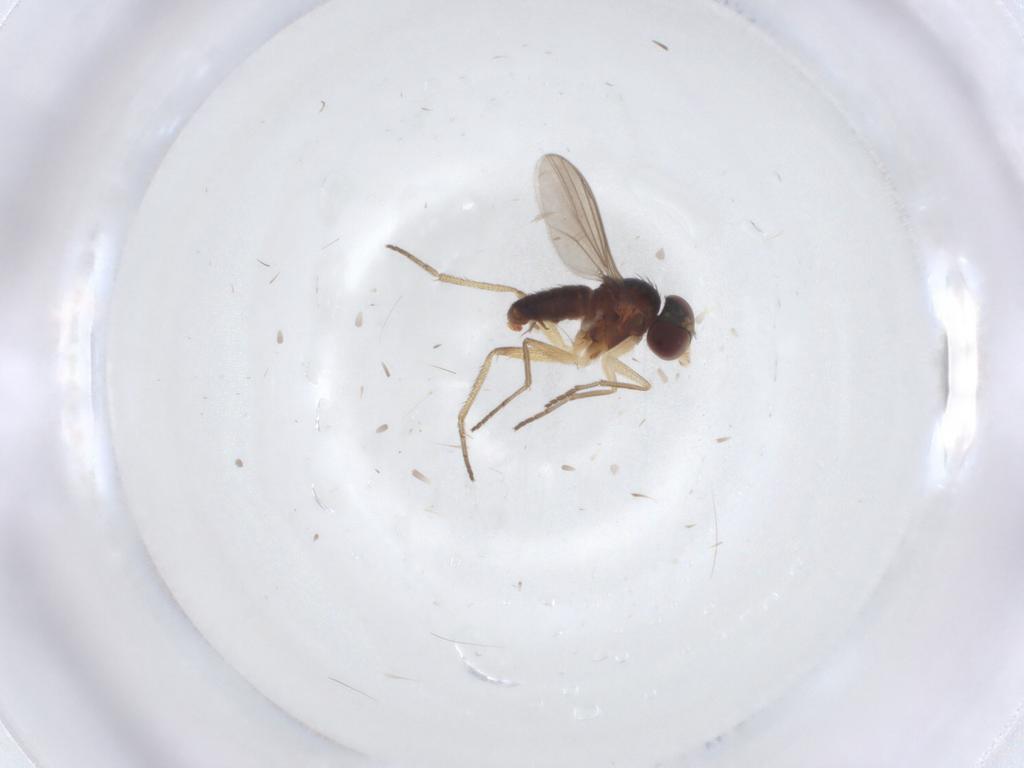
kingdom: Animalia
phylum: Arthropoda
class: Insecta
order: Diptera
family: Dolichopodidae
